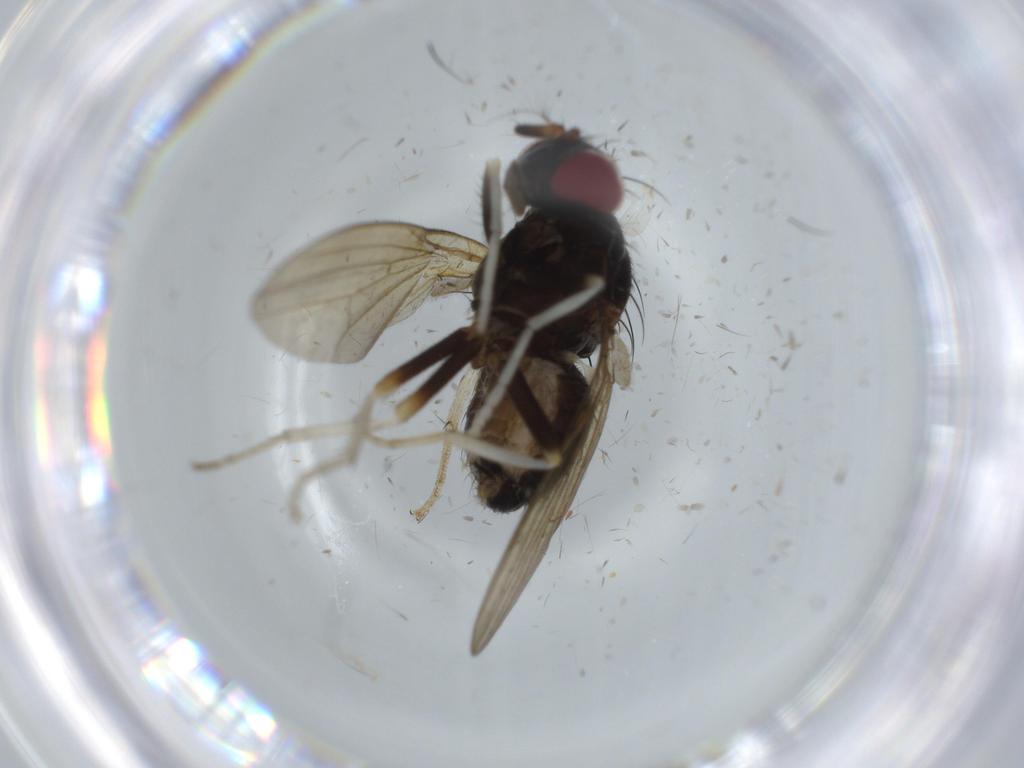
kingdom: Animalia
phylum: Arthropoda
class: Insecta
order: Diptera
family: Lauxaniidae
